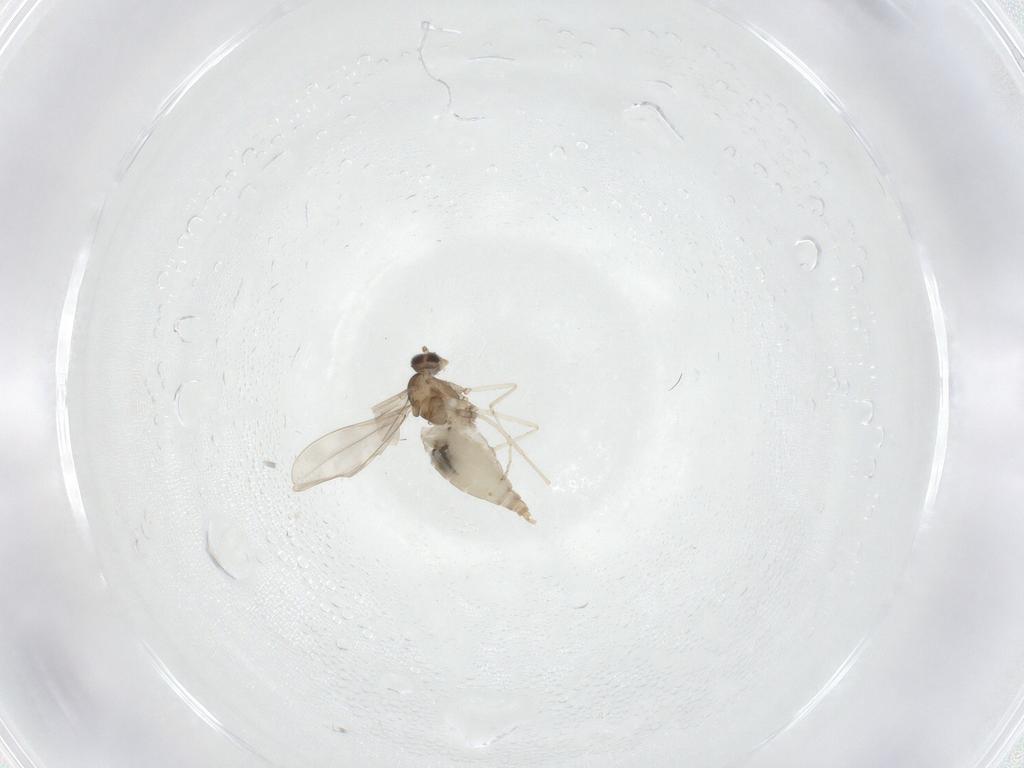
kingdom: Animalia
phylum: Arthropoda
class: Insecta
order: Diptera
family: Cecidomyiidae
